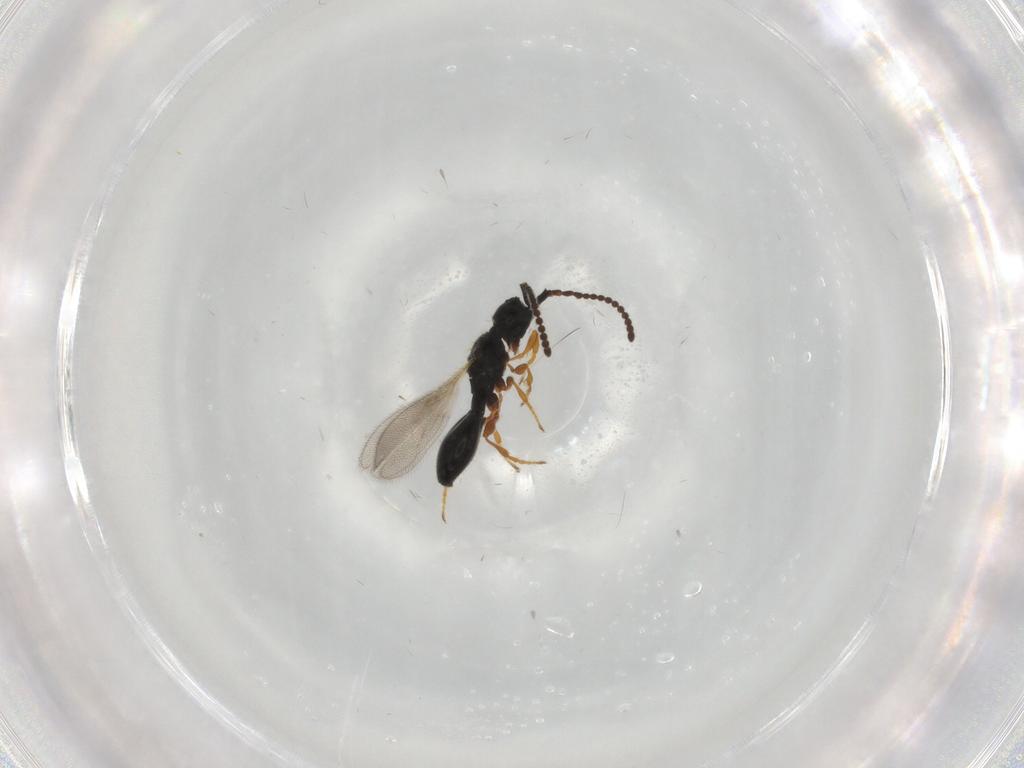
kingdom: Animalia
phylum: Arthropoda
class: Insecta
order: Hymenoptera
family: Diapriidae
